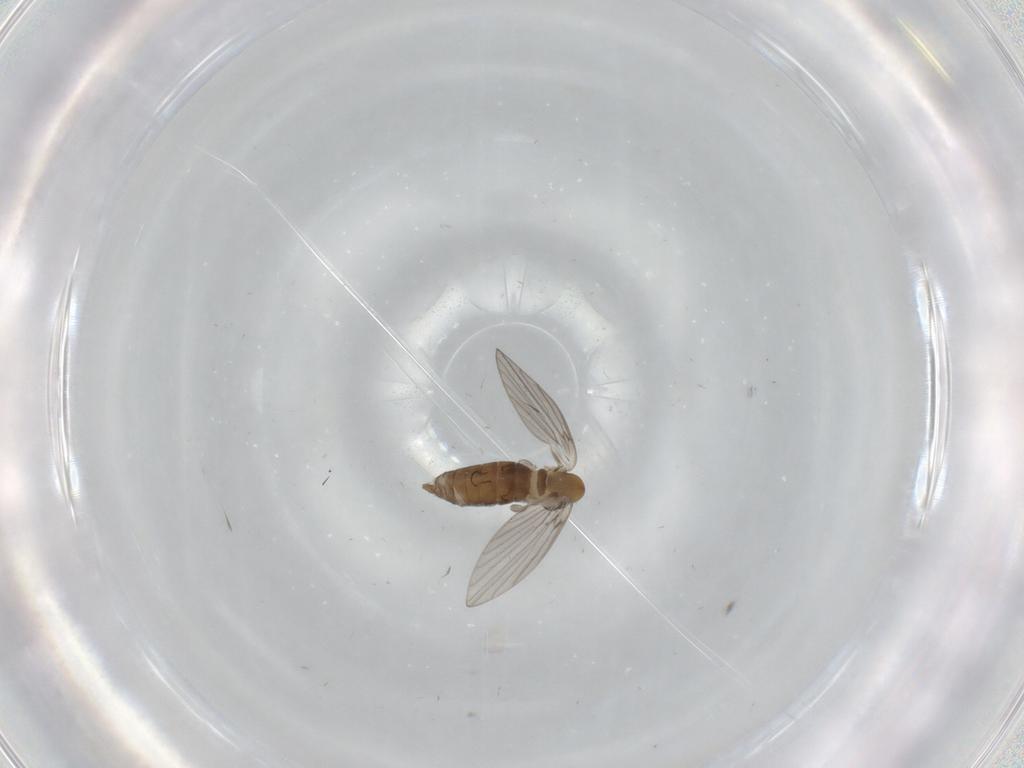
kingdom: Animalia
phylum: Arthropoda
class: Insecta
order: Diptera
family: Psychodidae
